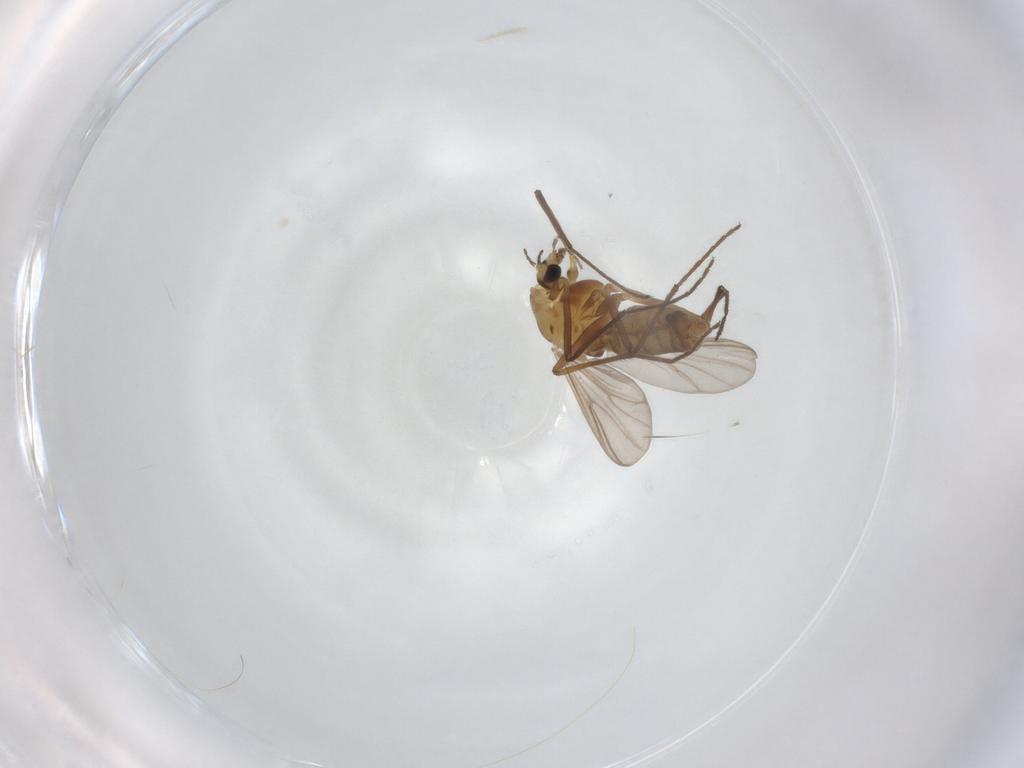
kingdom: Animalia
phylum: Arthropoda
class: Insecta
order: Diptera
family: Chironomidae
